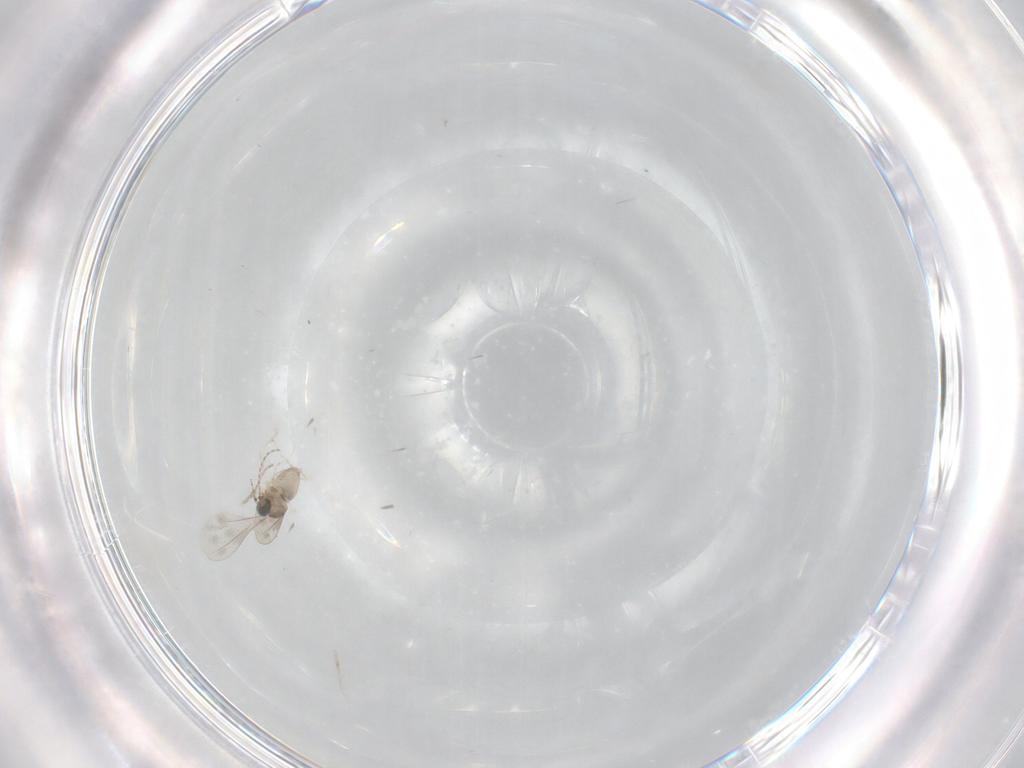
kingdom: Animalia
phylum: Arthropoda
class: Insecta
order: Diptera
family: Cecidomyiidae
